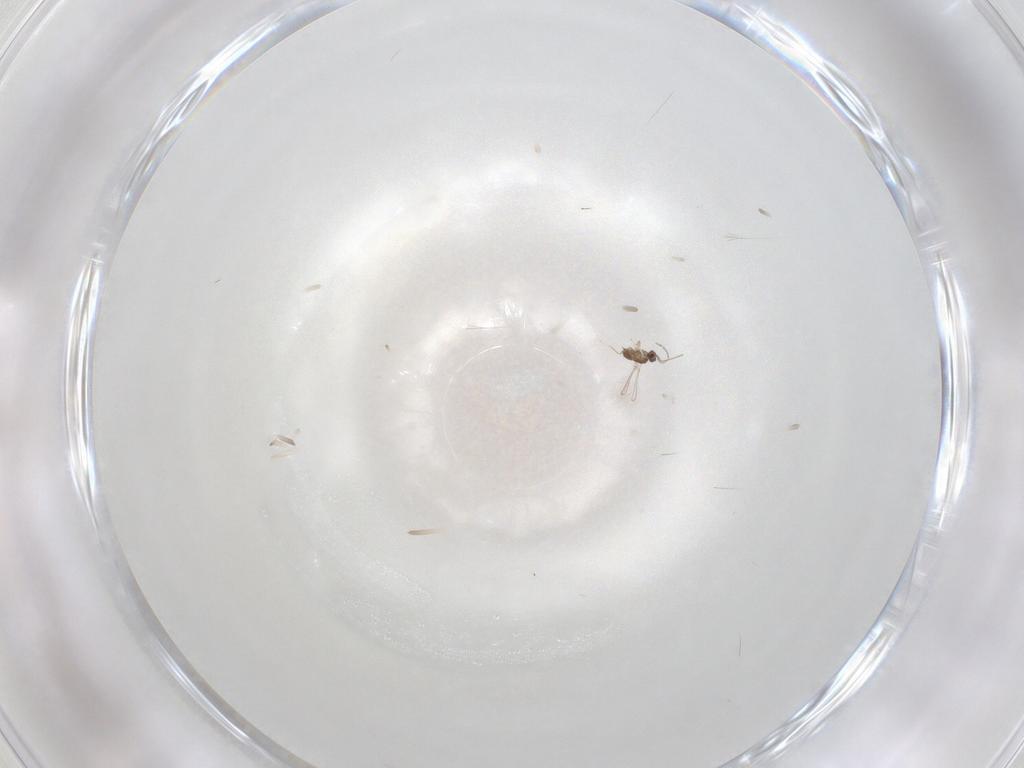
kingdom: Animalia
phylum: Arthropoda
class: Insecta
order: Hymenoptera
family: Mymaridae
